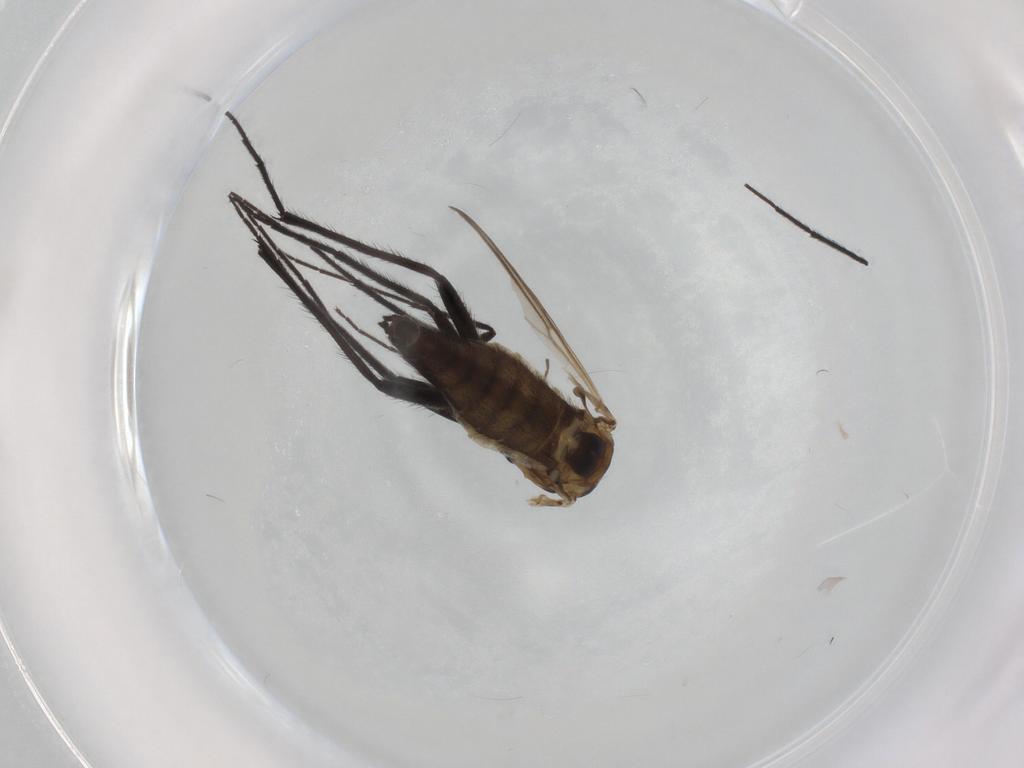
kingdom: Animalia
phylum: Arthropoda
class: Insecta
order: Diptera
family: Chironomidae
